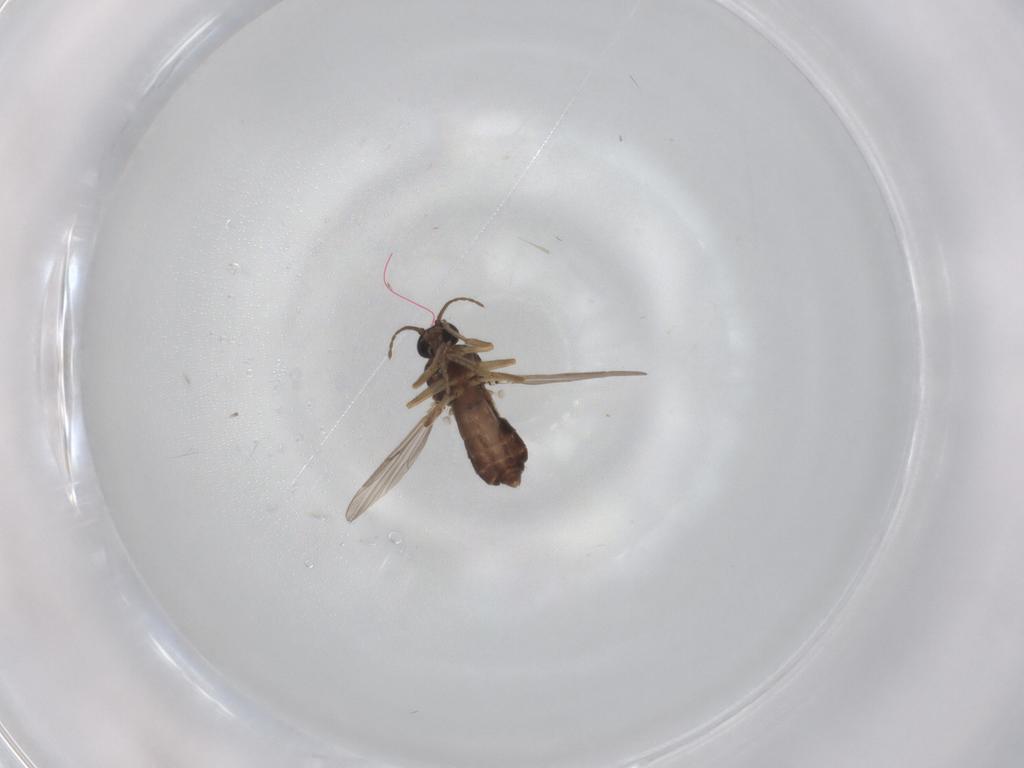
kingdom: Animalia
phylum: Arthropoda
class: Insecta
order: Diptera
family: Ceratopogonidae
